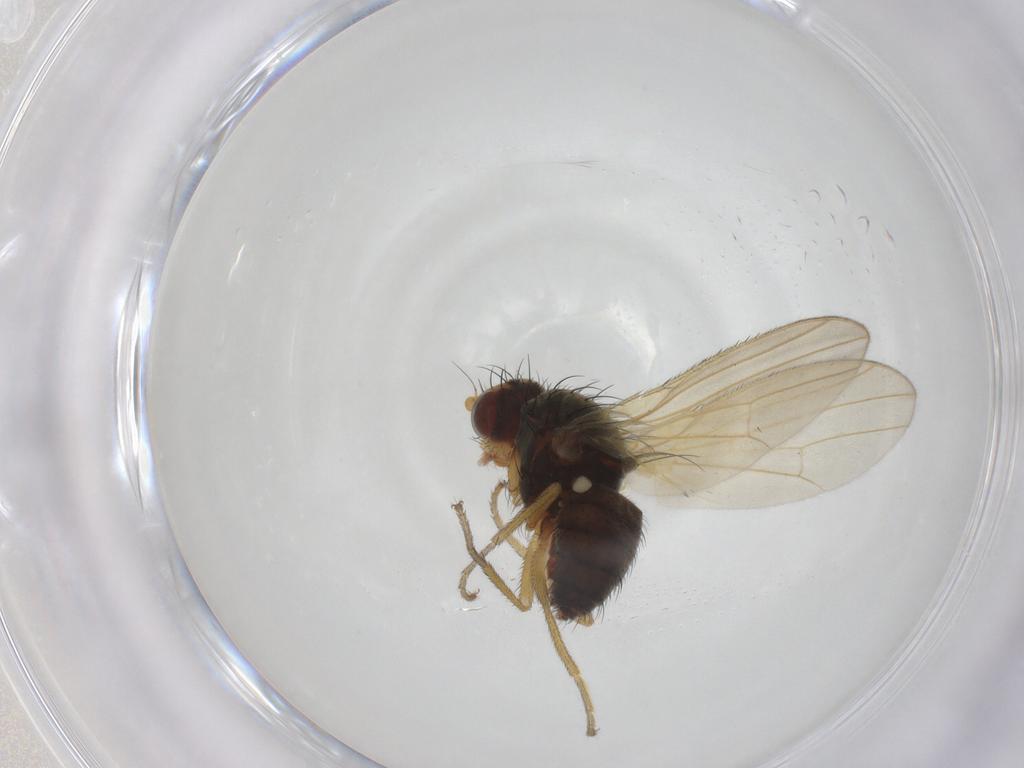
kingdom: Animalia
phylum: Arthropoda
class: Insecta
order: Diptera
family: Heleomyzidae
